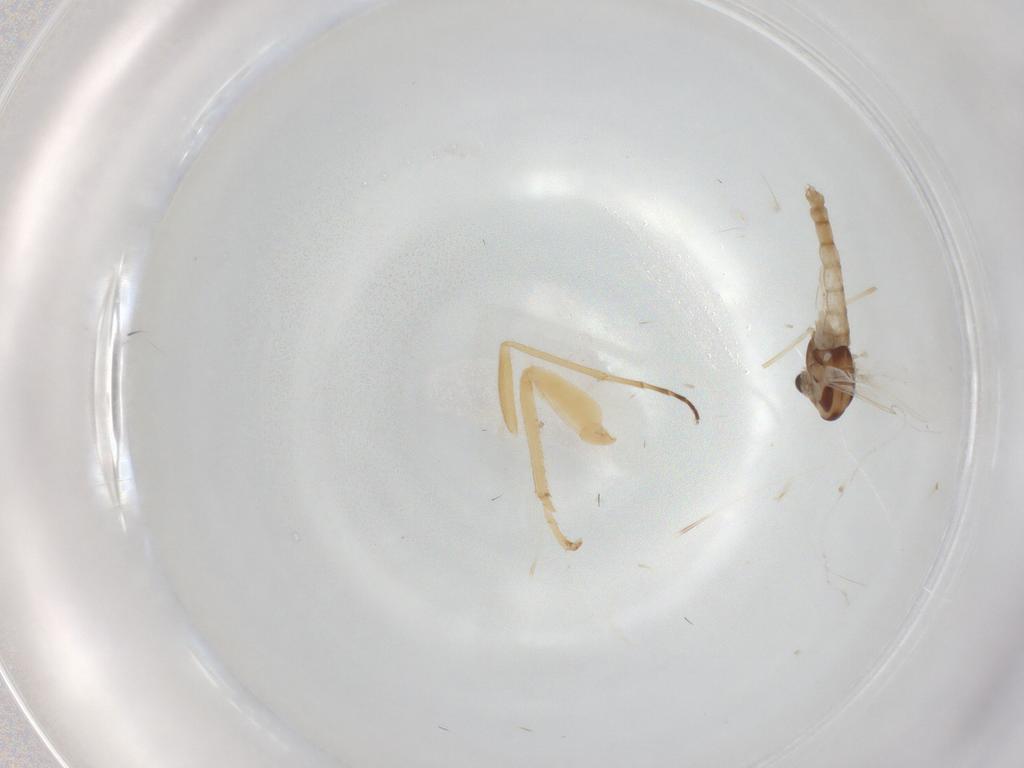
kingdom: Animalia
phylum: Arthropoda
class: Insecta
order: Diptera
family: Dolichopodidae
